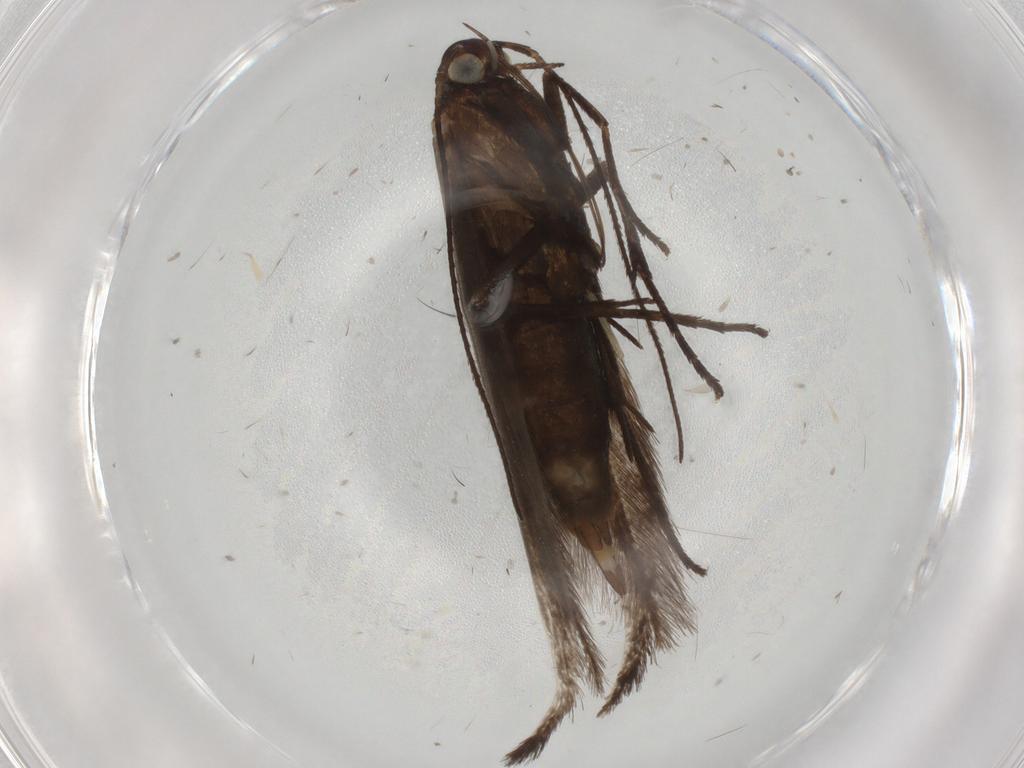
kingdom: Animalia
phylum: Arthropoda
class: Insecta
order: Lepidoptera
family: Coleophoridae
